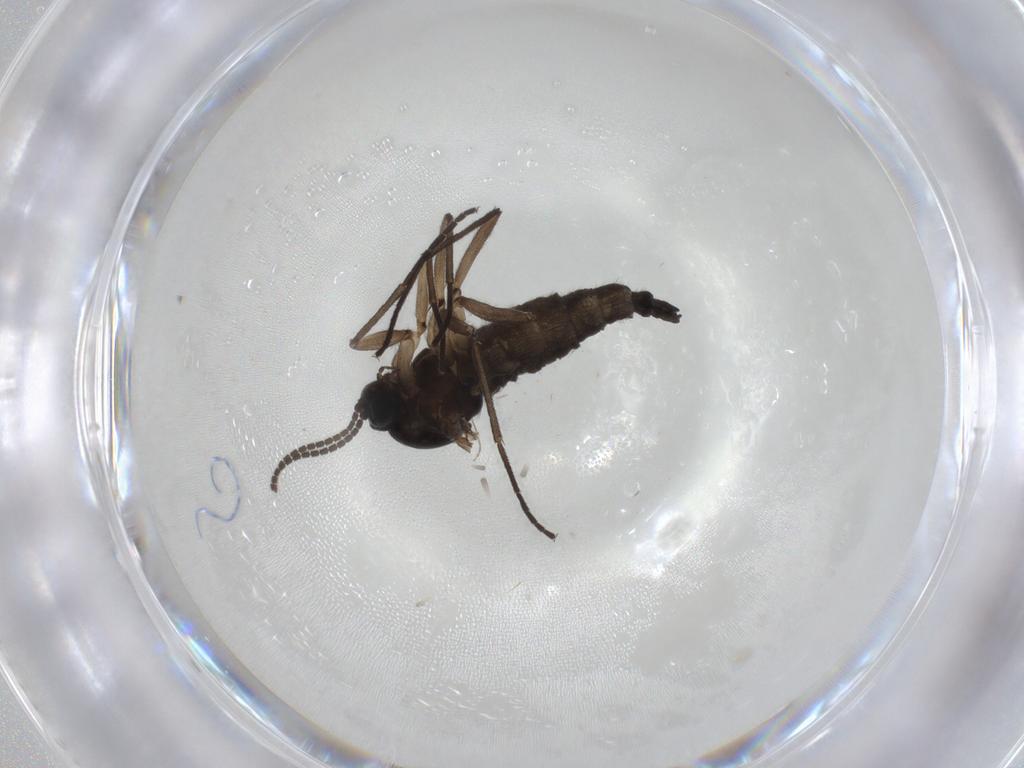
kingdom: Animalia
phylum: Arthropoda
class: Insecta
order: Diptera
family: Sciaridae
